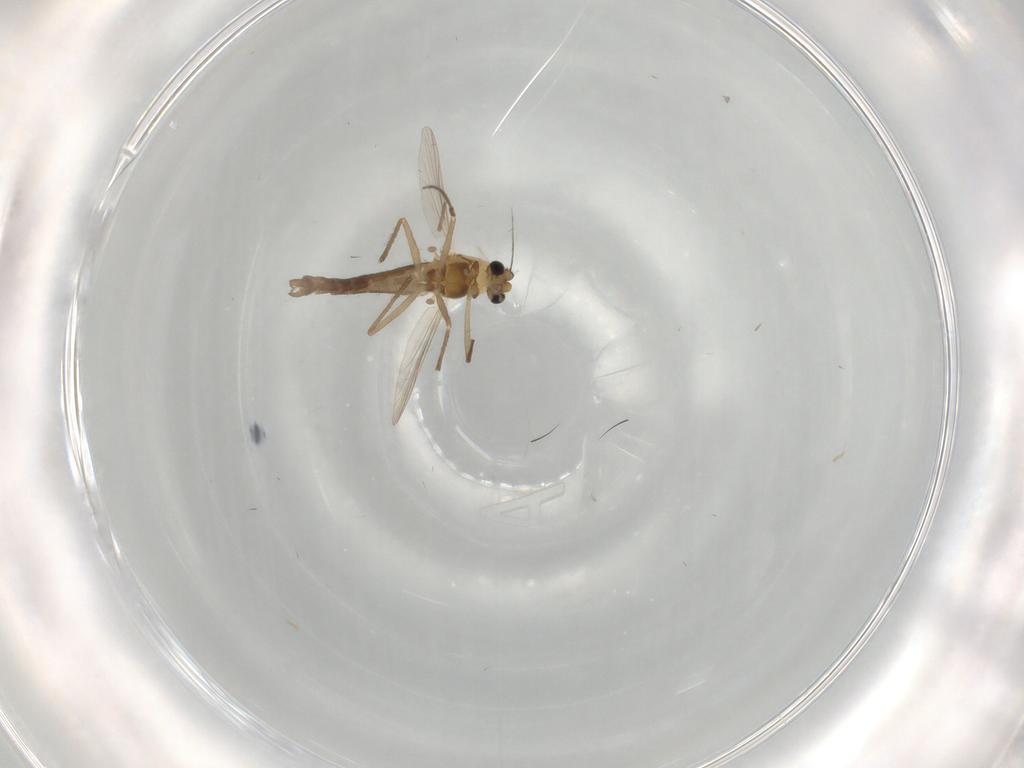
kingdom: Animalia
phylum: Arthropoda
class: Insecta
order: Diptera
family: Chironomidae
